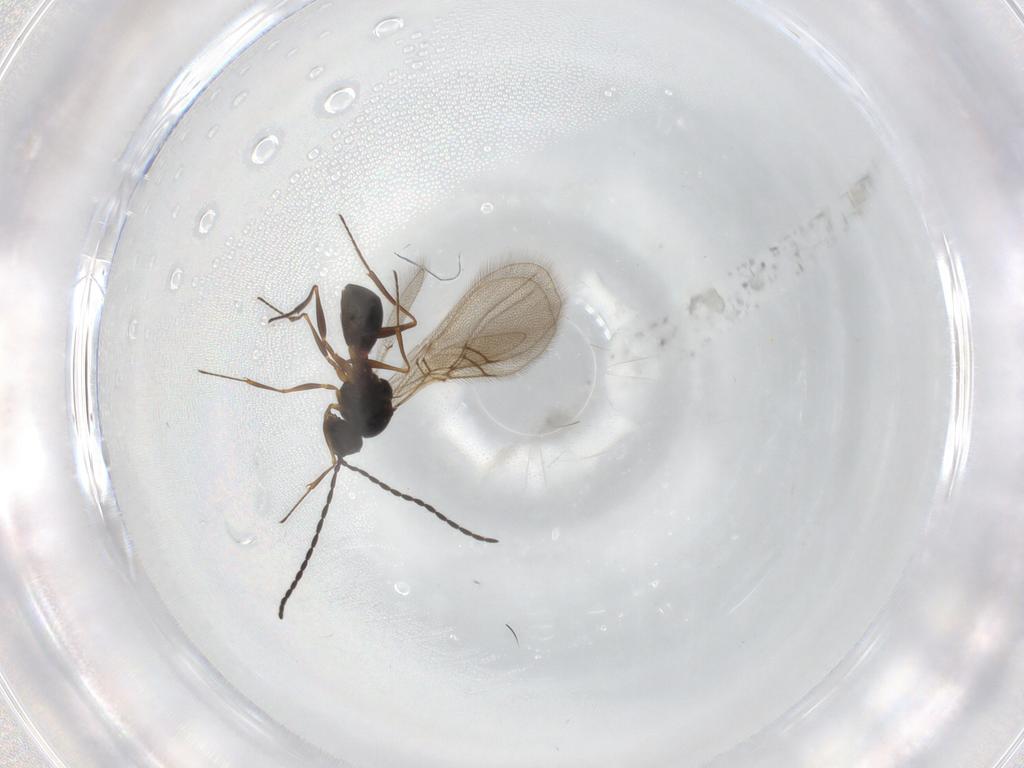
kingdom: Animalia
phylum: Arthropoda
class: Insecta
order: Hymenoptera
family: Figitidae
